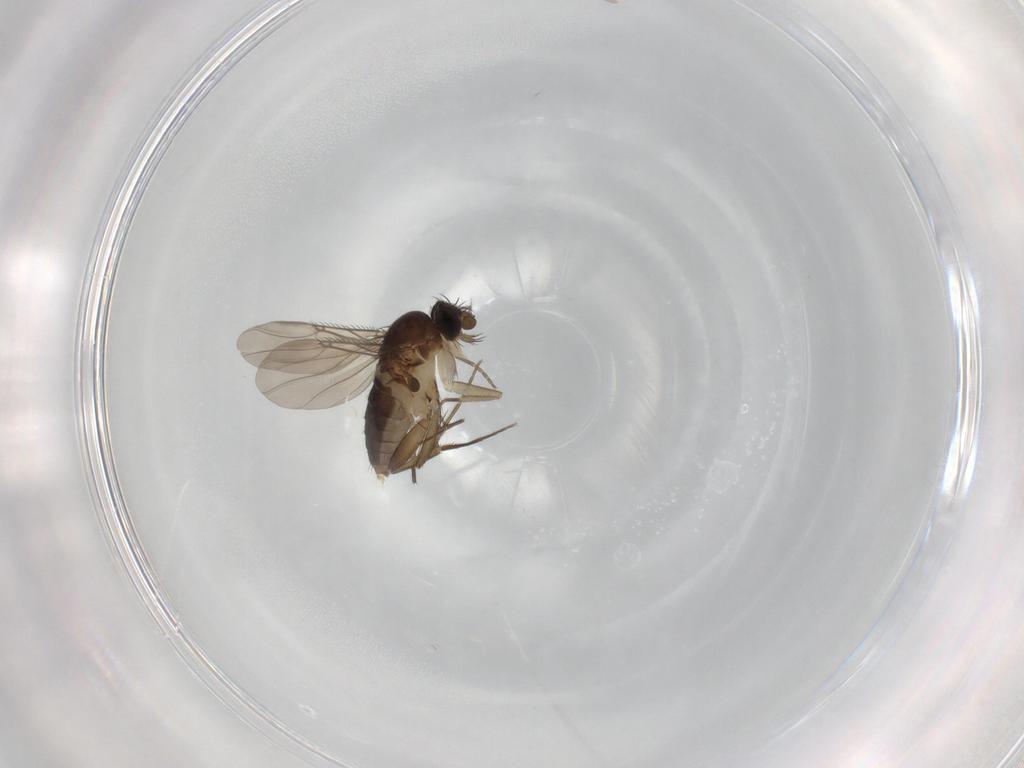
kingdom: Animalia
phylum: Arthropoda
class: Insecta
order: Diptera
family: Phoridae
